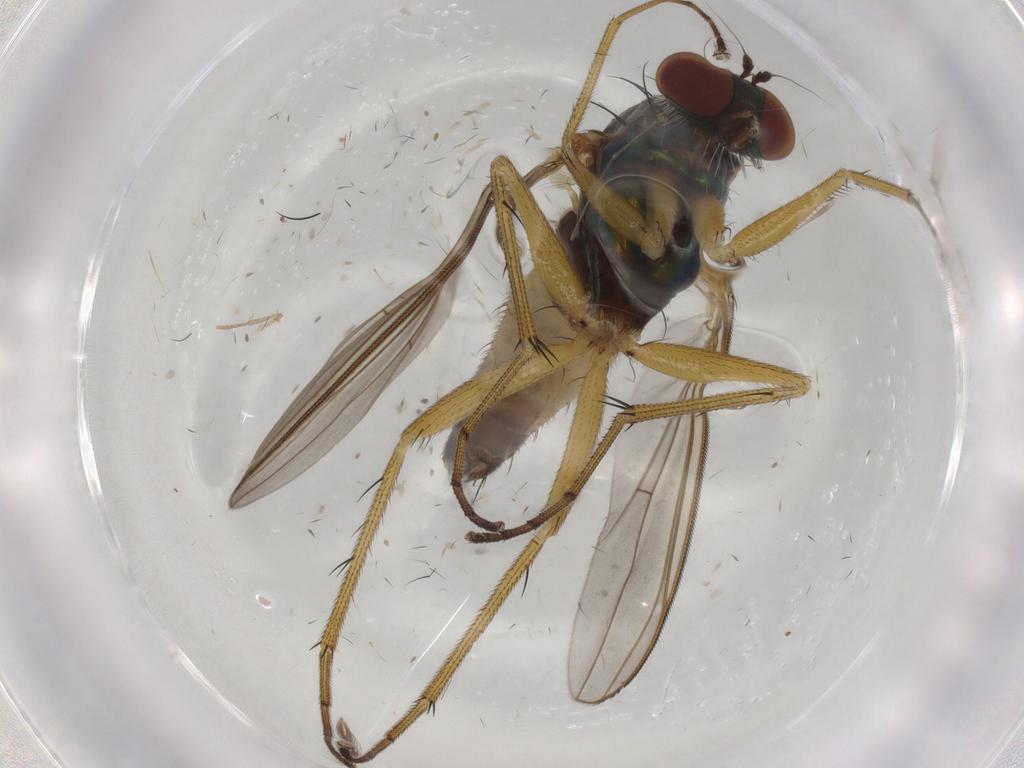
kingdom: Animalia
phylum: Arthropoda
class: Insecta
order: Diptera
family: Dolichopodidae
